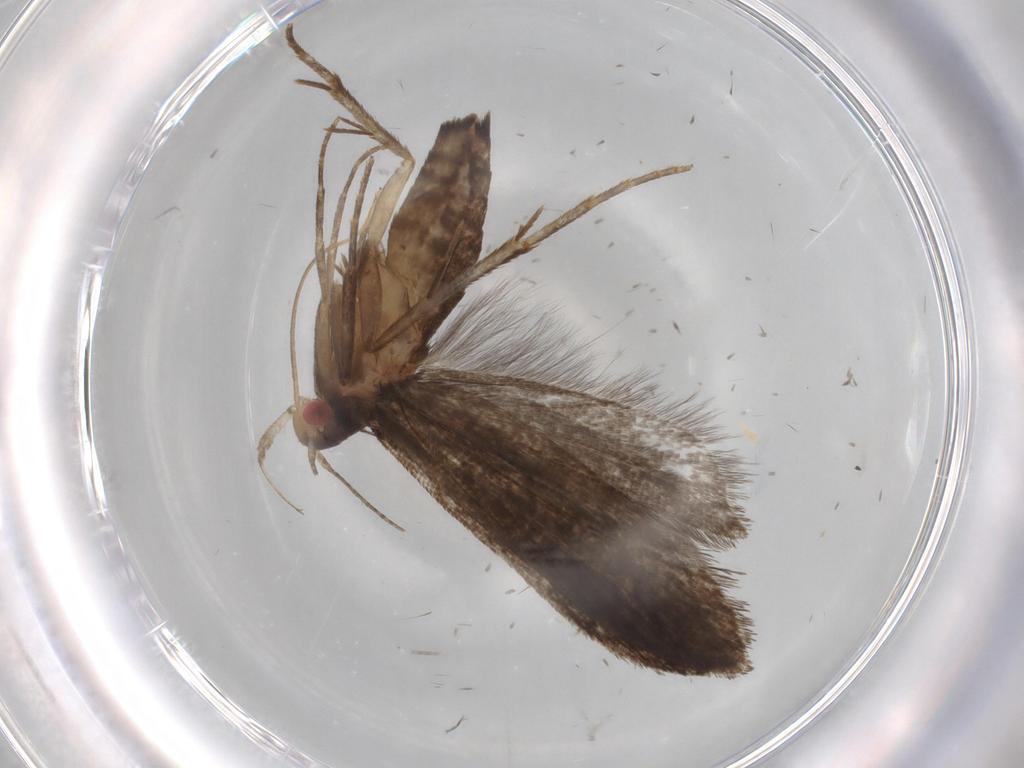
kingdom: Animalia
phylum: Arthropoda
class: Insecta
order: Lepidoptera
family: Gelechiidae
